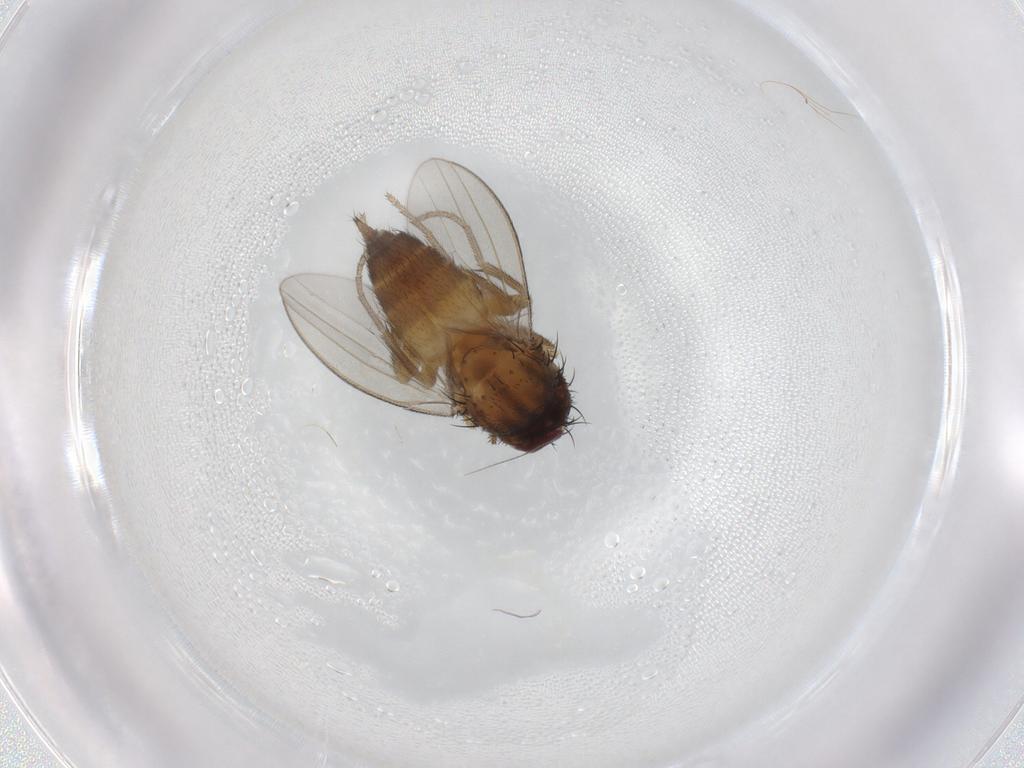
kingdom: Animalia
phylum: Arthropoda
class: Insecta
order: Diptera
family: Milichiidae
